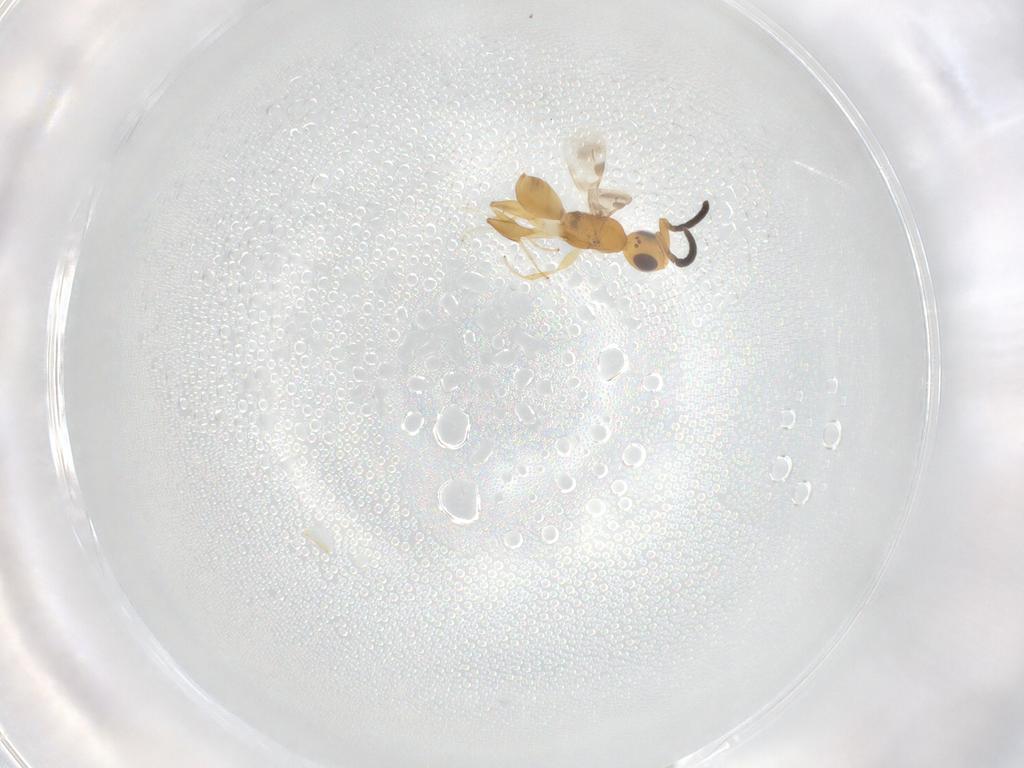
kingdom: Animalia
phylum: Arthropoda
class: Insecta
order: Hymenoptera
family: Megaspilidae
